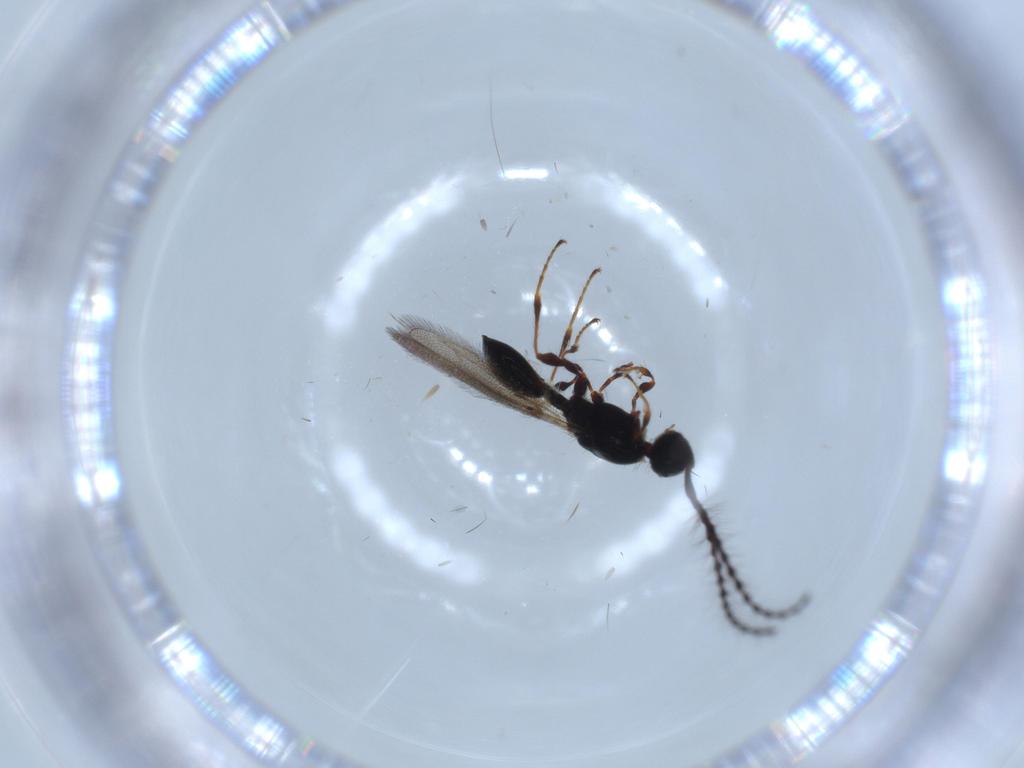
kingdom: Animalia
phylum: Arthropoda
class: Insecta
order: Hymenoptera
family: Diapriidae
